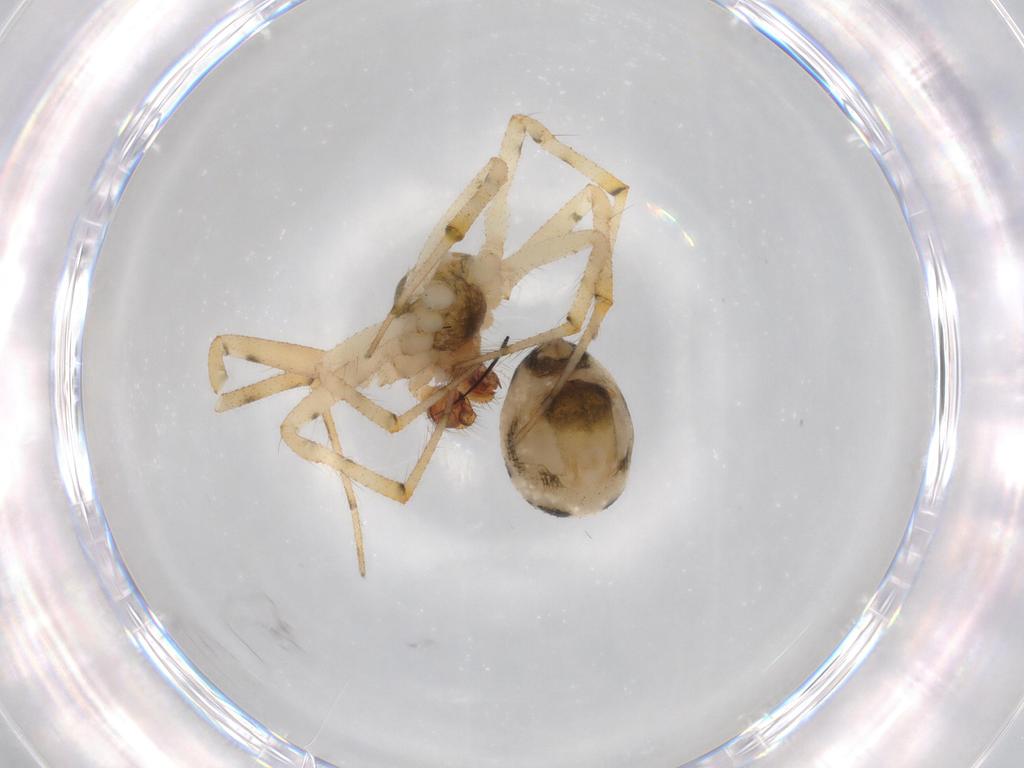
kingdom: Animalia
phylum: Arthropoda
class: Arachnida
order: Araneae
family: Theridiidae
